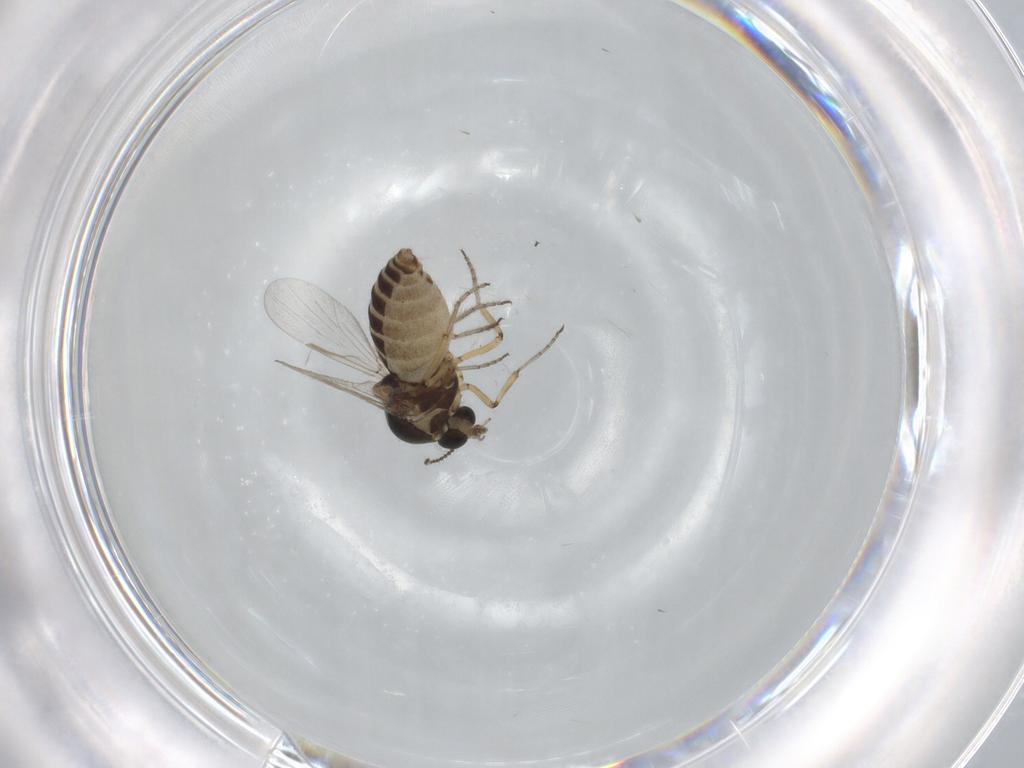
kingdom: Animalia
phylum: Arthropoda
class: Insecta
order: Diptera
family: Ceratopogonidae
